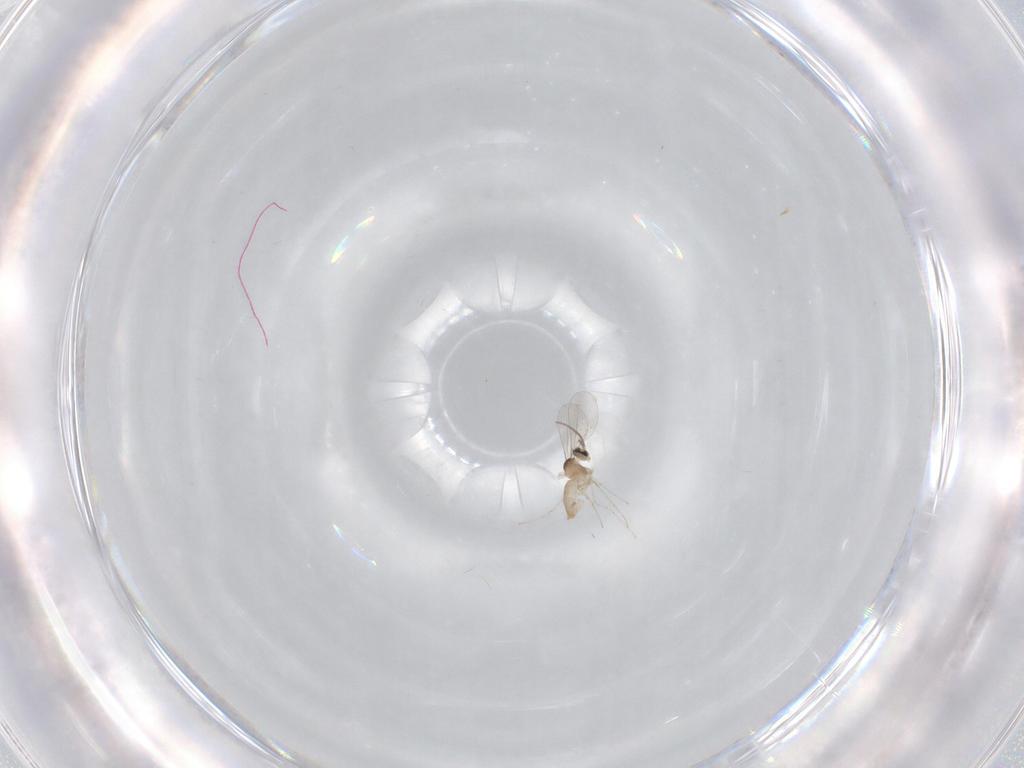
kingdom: Animalia
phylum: Arthropoda
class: Insecta
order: Diptera
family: Cecidomyiidae
